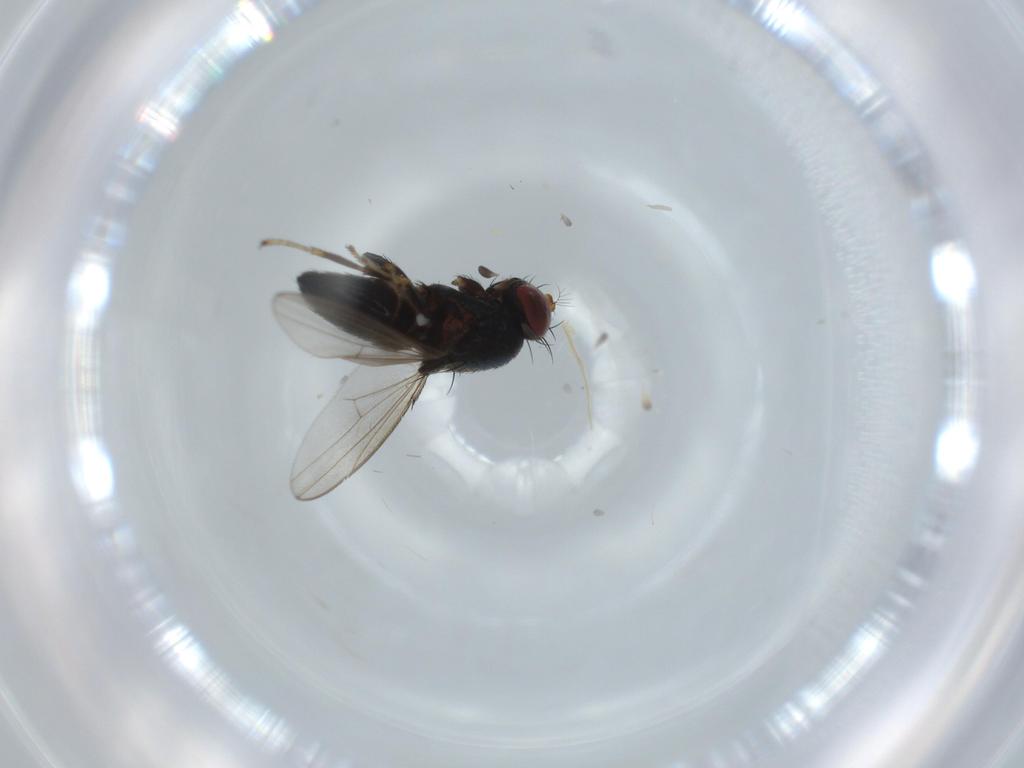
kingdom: Animalia
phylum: Arthropoda
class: Insecta
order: Diptera
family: Ephydridae
